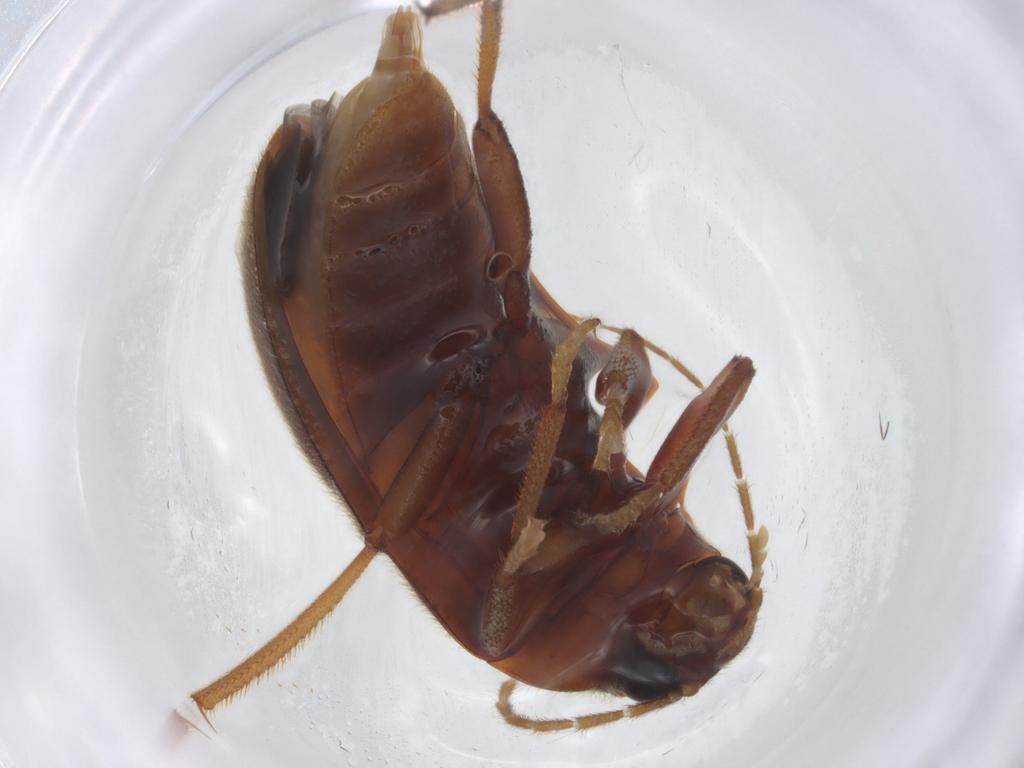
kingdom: Animalia
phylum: Arthropoda
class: Insecta
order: Coleoptera
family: Ptilodactylidae
